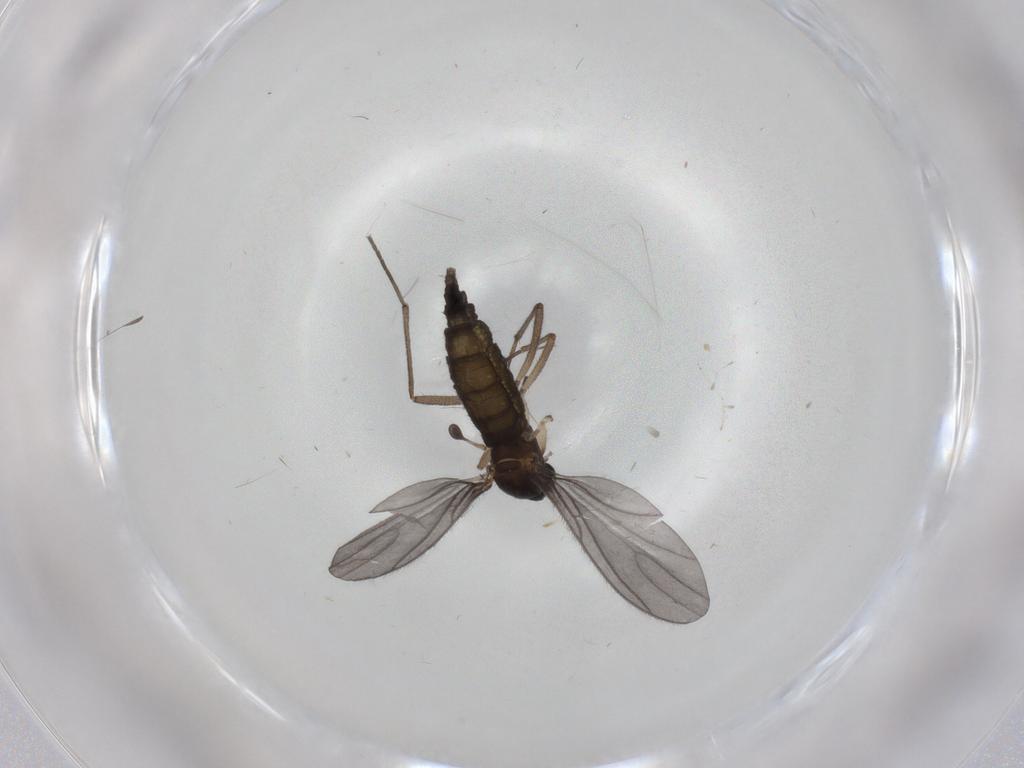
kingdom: Animalia
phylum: Arthropoda
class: Insecta
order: Diptera
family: Sciaridae
